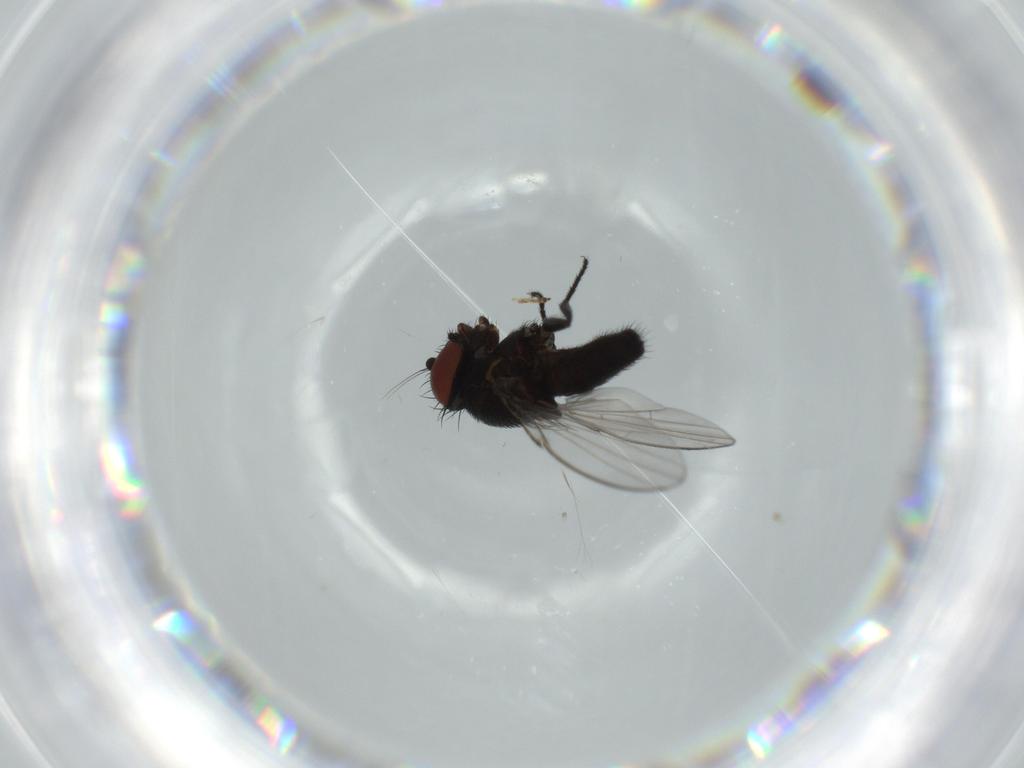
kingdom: Animalia
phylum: Arthropoda
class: Insecta
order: Diptera
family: Milichiidae
